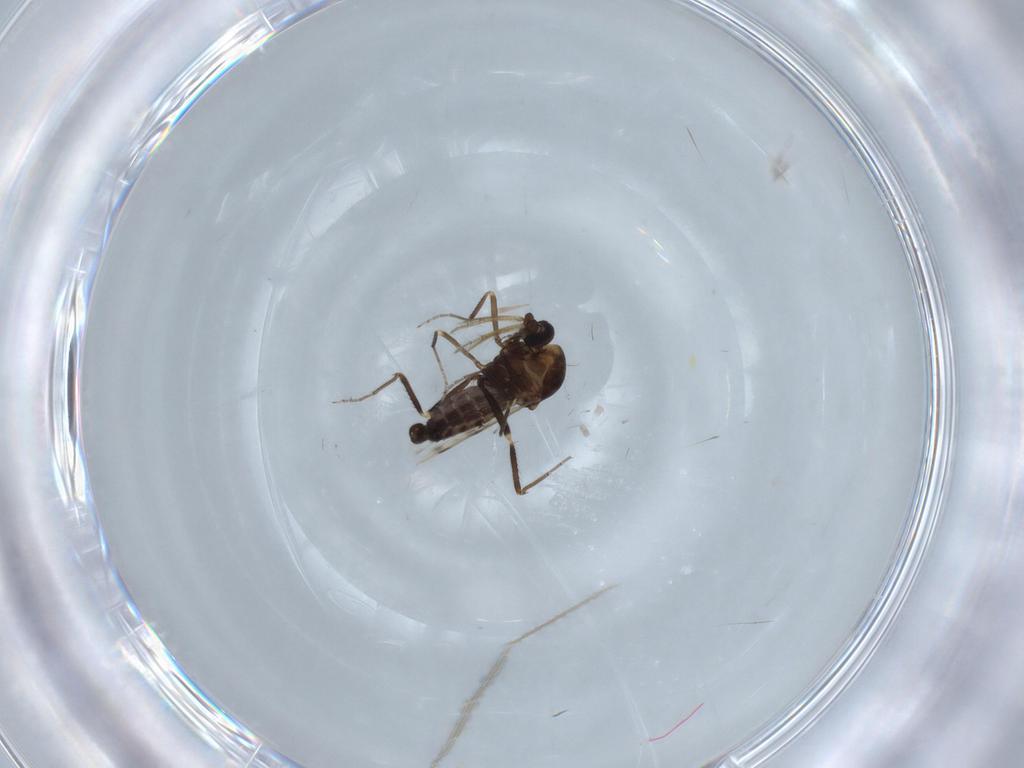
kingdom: Animalia
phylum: Arthropoda
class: Insecta
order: Diptera
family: Ceratopogonidae
